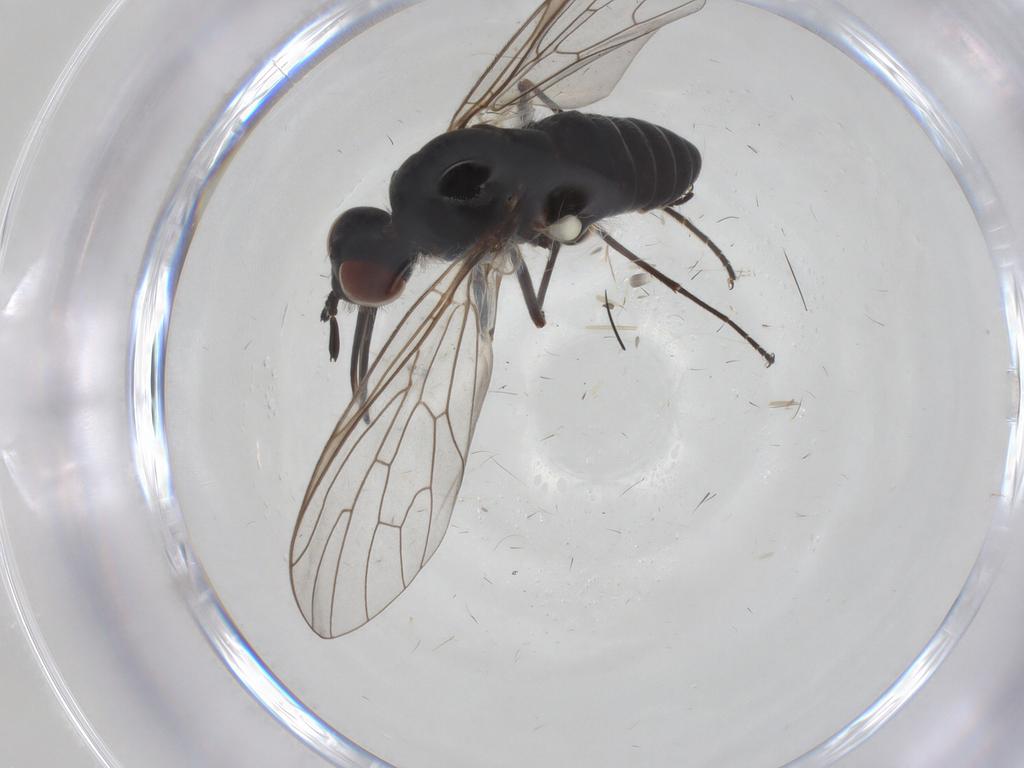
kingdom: Animalia
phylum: Arthropoda
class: Insecta
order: Diptera
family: Bombyliidae
